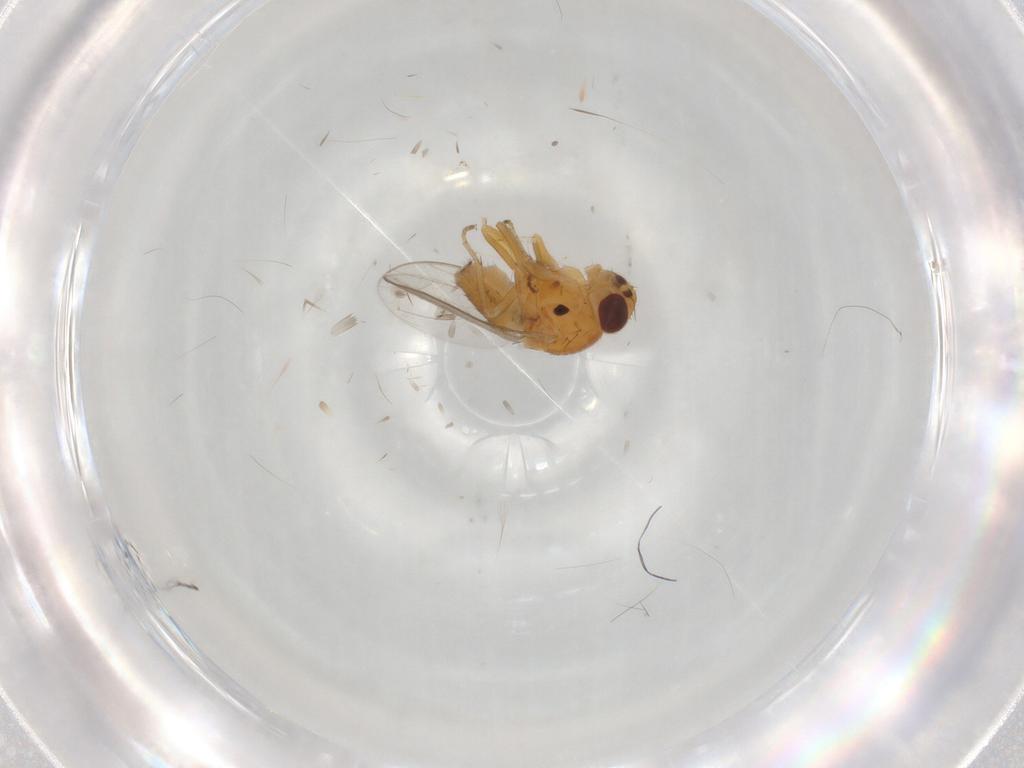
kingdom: Animalia
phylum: Arthropoda
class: Insecta
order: Diptera
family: Chloropidae
